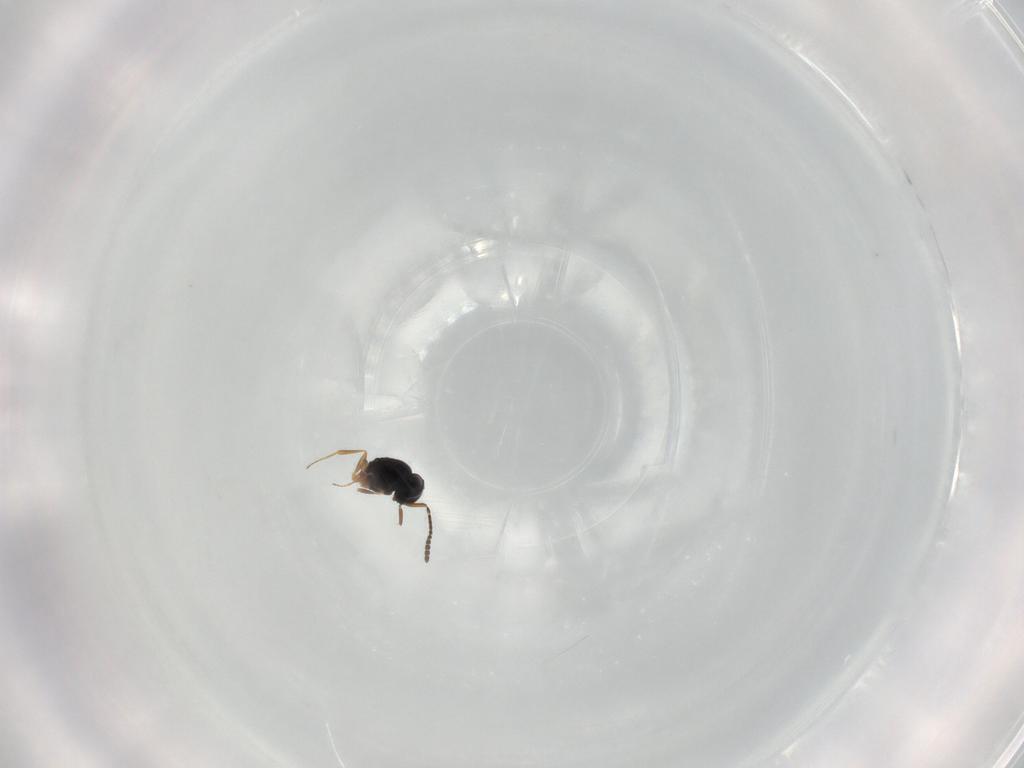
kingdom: Animalia
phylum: Arthropoda
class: Insecta
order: Hymenoptera
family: Scelionidae
